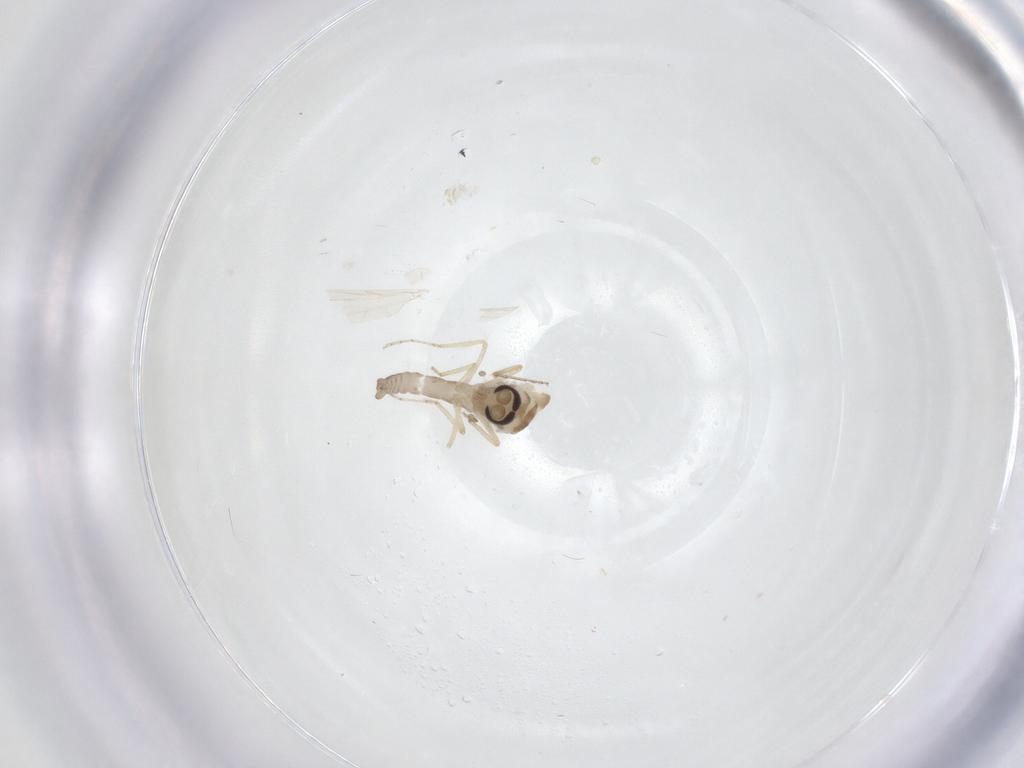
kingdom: Animalia
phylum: Arthropoda
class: Insecta
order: Diptera
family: Ceratopogonidae
